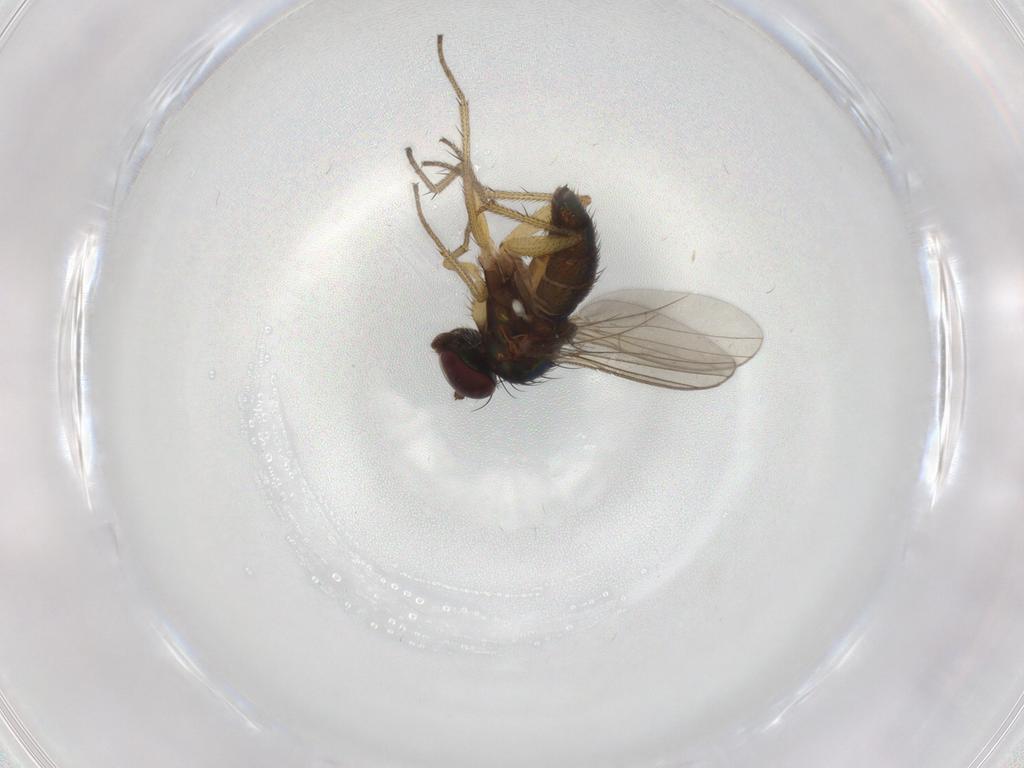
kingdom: Animalia
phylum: Arthropoda
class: Insecta
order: Diptera
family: Dolichopodidae
